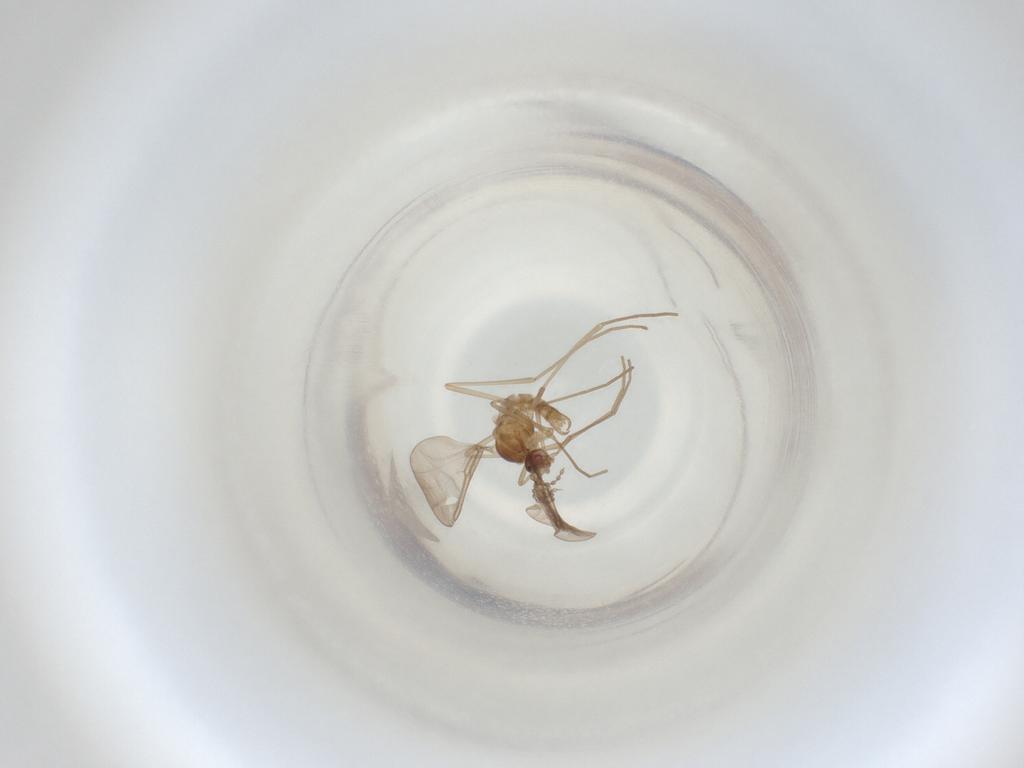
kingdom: Animalia
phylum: Arthropoda
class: Insecta
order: Diptera
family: Cecidomyiidae
